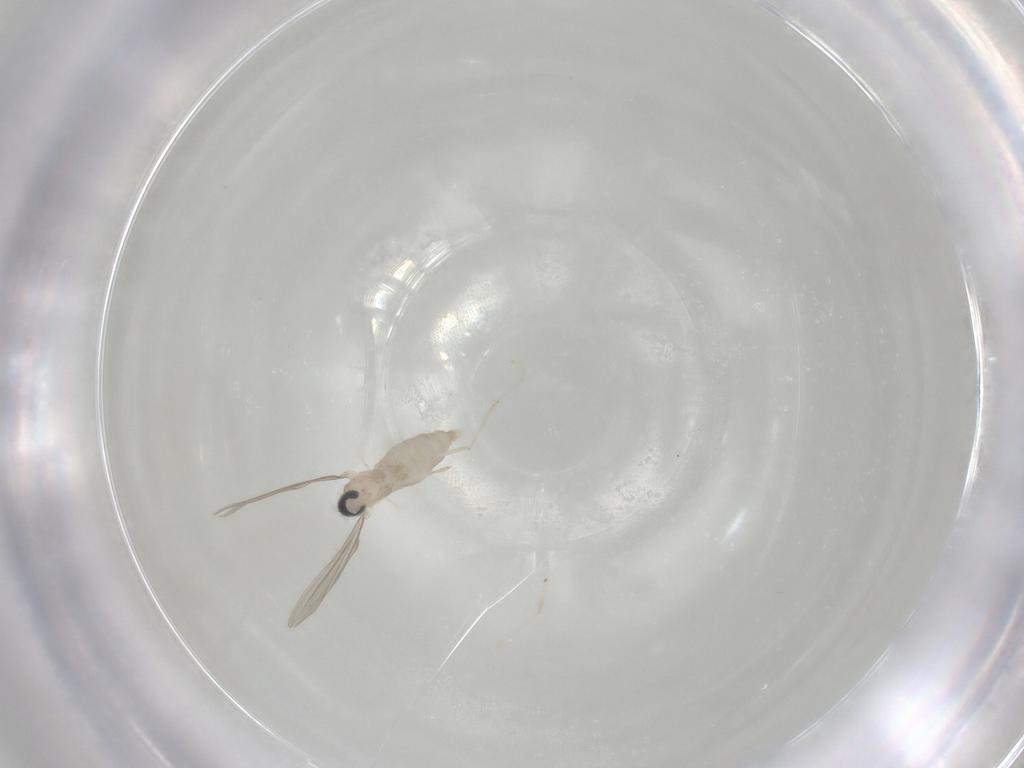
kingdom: Animalia
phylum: Arthropoda
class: Insecta
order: Diptera
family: Cecidomyiidae
